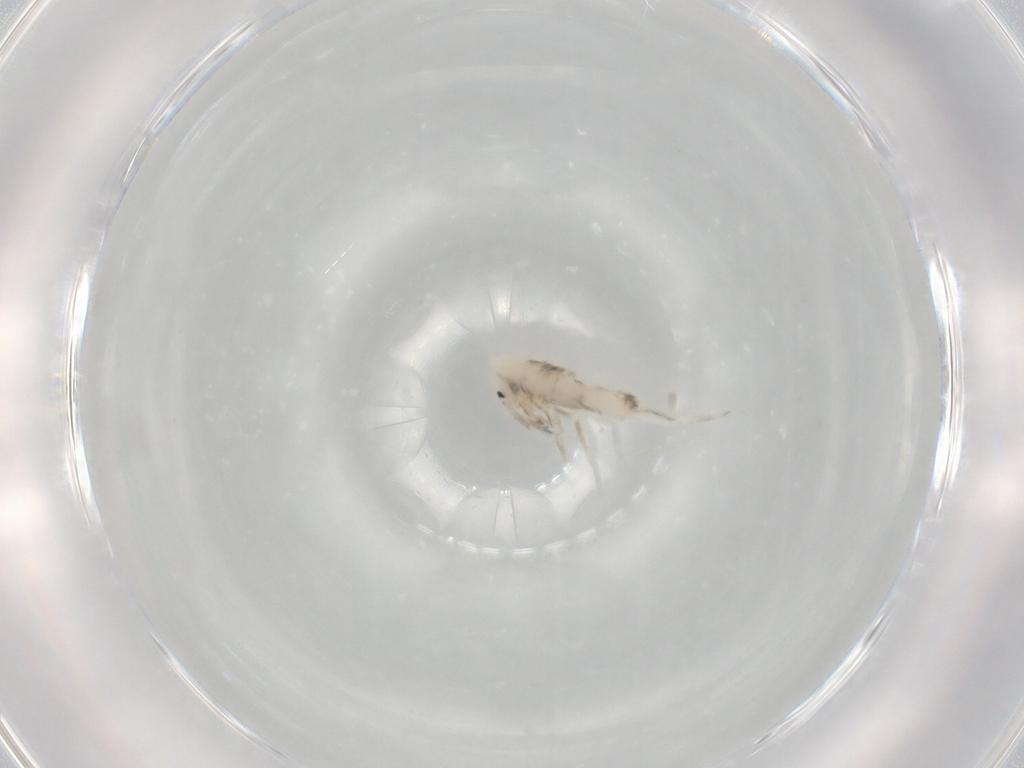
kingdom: Animalia
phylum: Arthropoda
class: Collembola
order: Entomobryomorpha
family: Entomobryidae
